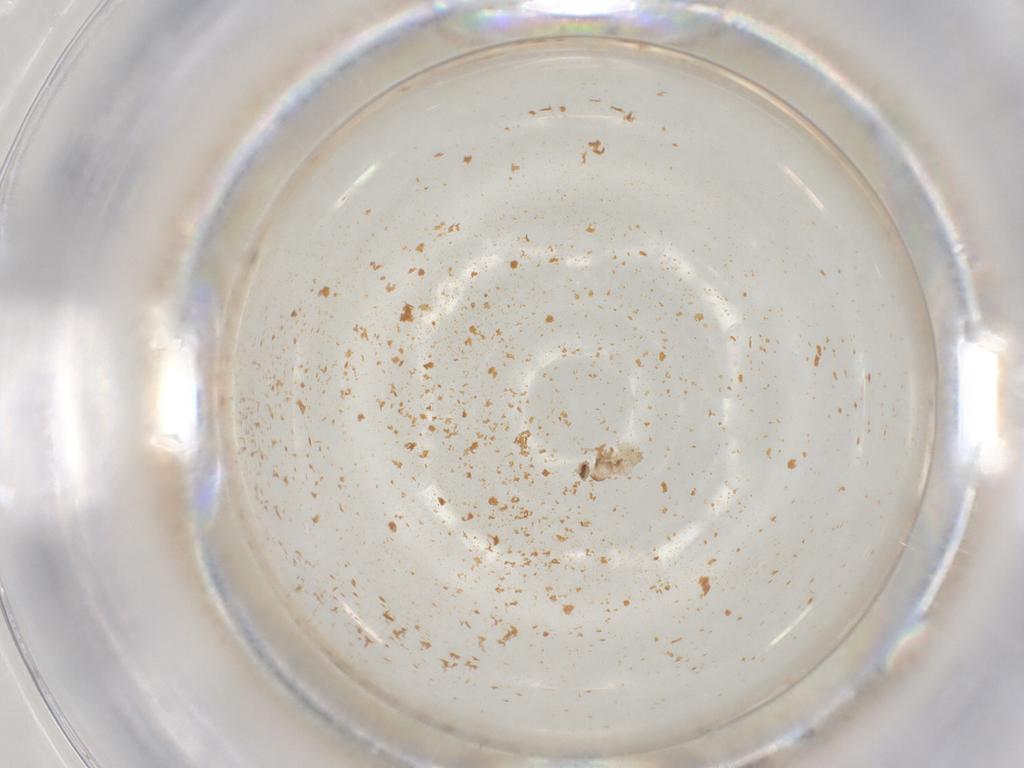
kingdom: Animalia
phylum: Arthropoda
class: Insecta
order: Diptera
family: Cecidomyiidae
